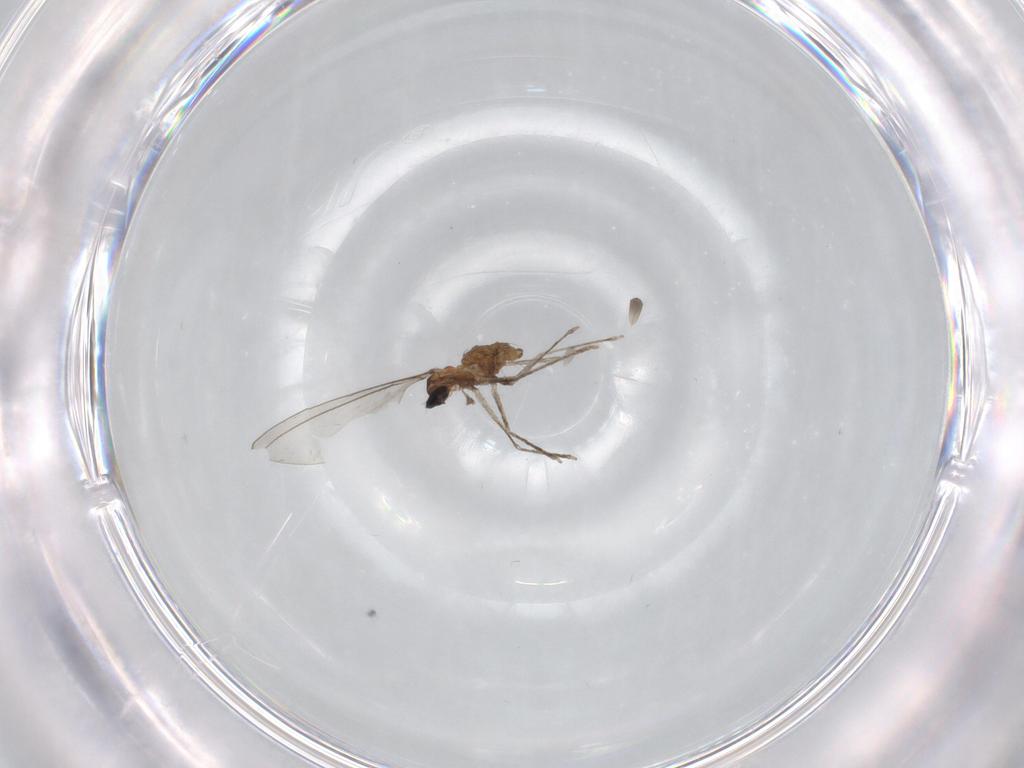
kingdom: Animalia
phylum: Arthropoda
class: Insecta
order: Diptera
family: Cecidomyiidae
